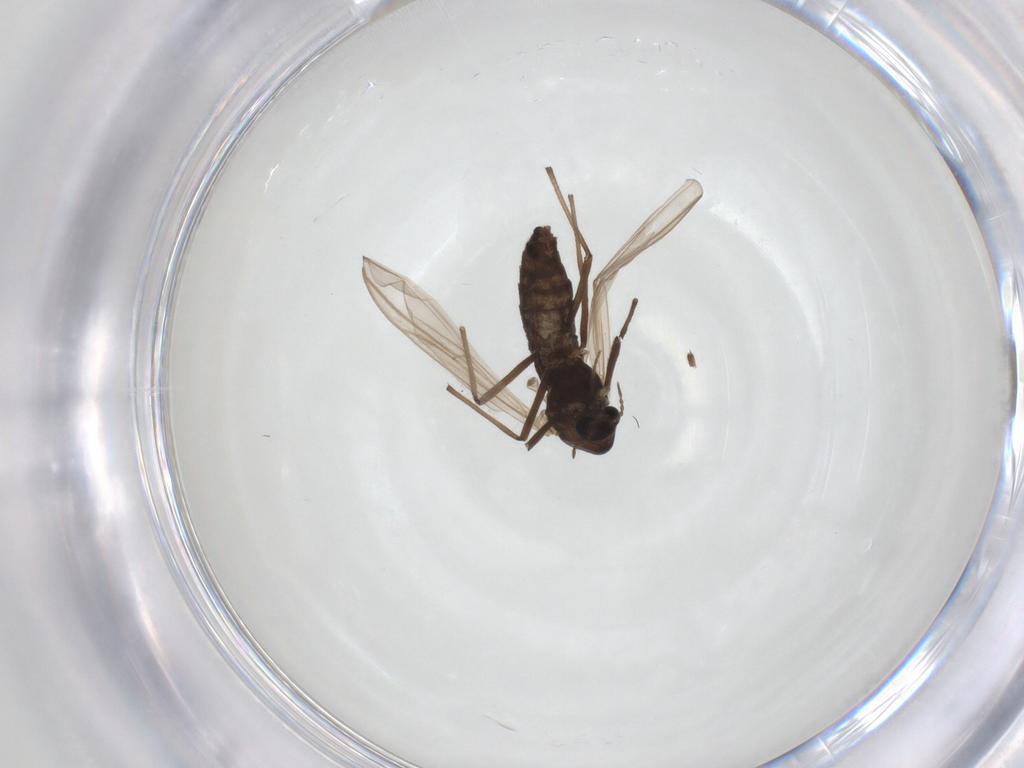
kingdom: Animalia
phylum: Arthropoda
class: Insecta
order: Diptera
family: Chironomidae
